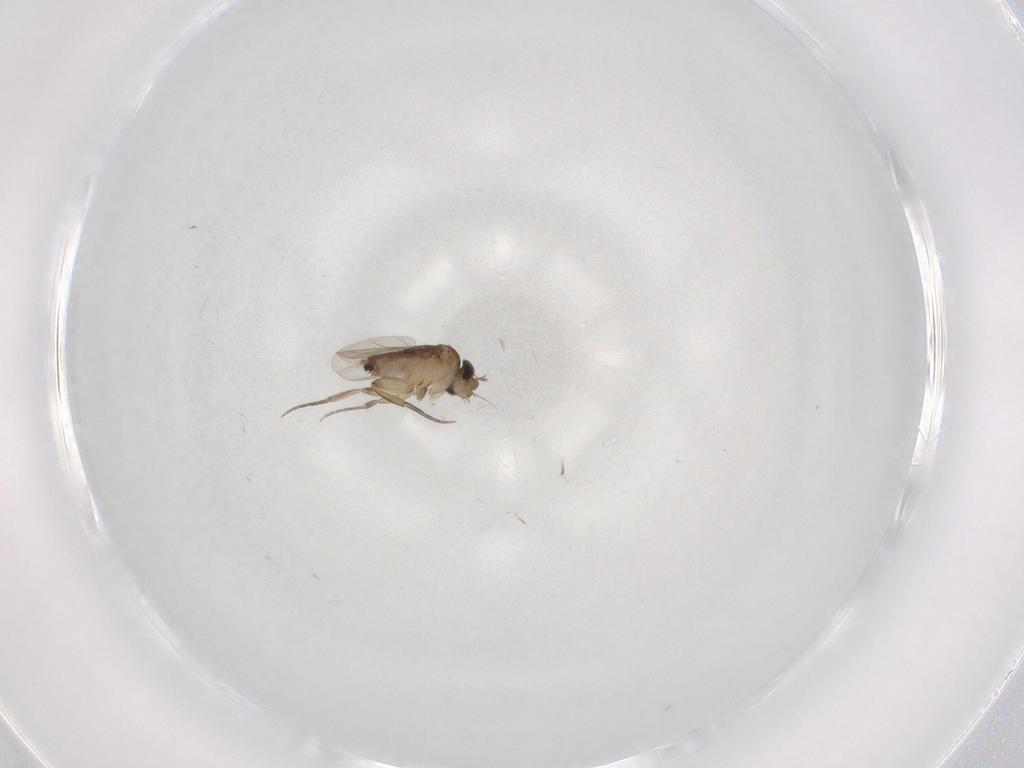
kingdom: Animalia
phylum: Arthropoda
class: Insecta
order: Diptera
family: Phoridae
